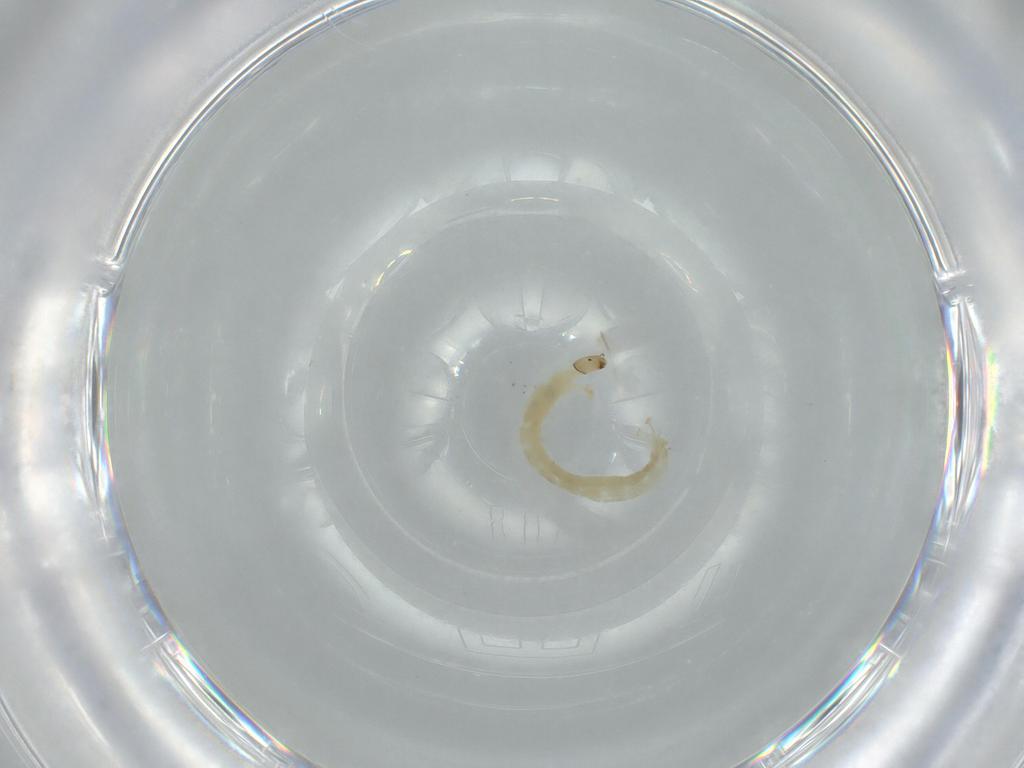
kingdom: Animalia
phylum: Arthropoda
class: Insecta
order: Diptera
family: Chironomidae
